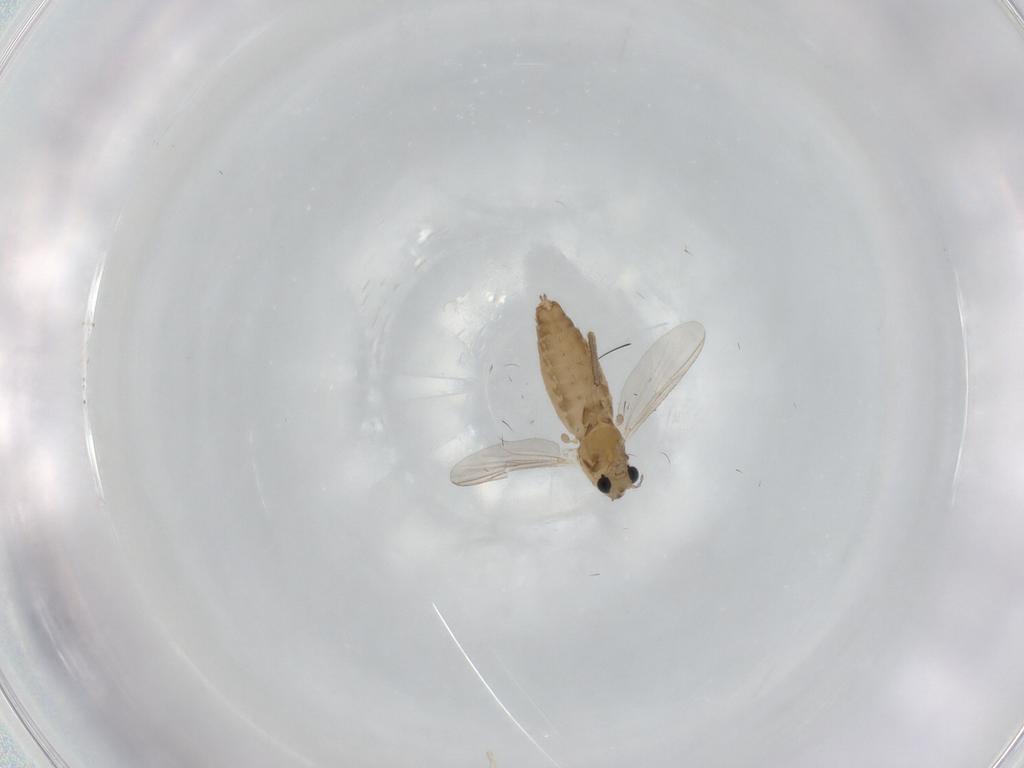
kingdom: Animalia
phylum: Arthropoda
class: Insecta
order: Diptera
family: Chironomidae
